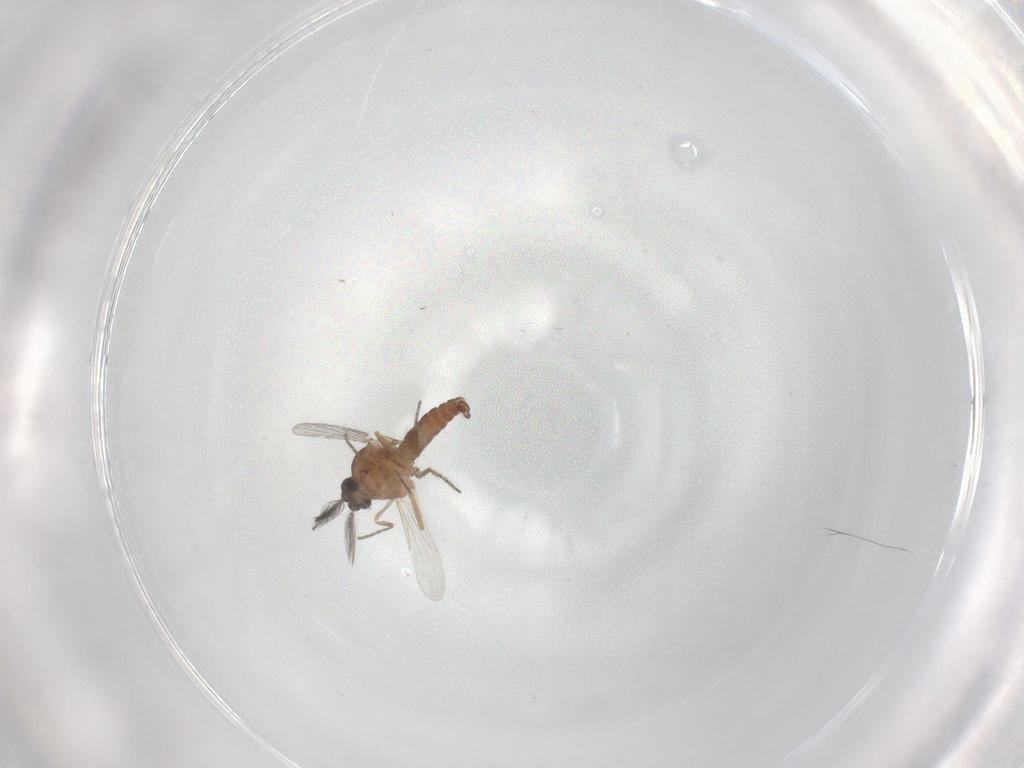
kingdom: Animalia
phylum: Arthropoda
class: Insecta
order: Diptera
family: Ceratopogonidae
